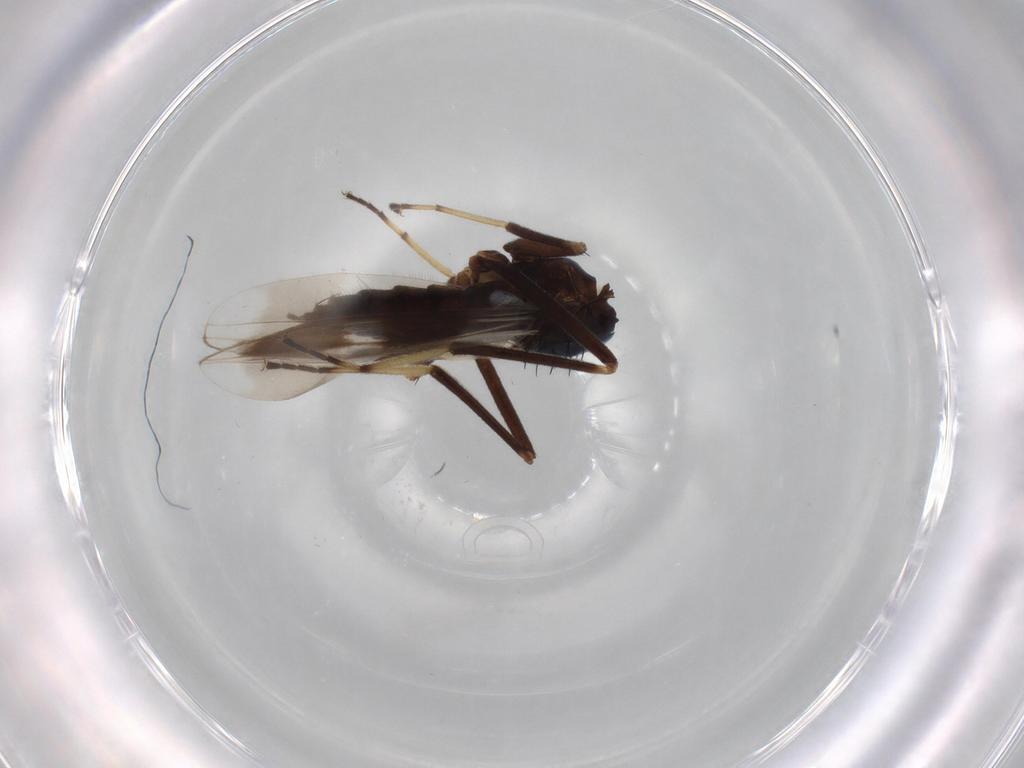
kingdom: Animalia
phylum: Arthropoda
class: Insecta
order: Diptera
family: Hybotidae
